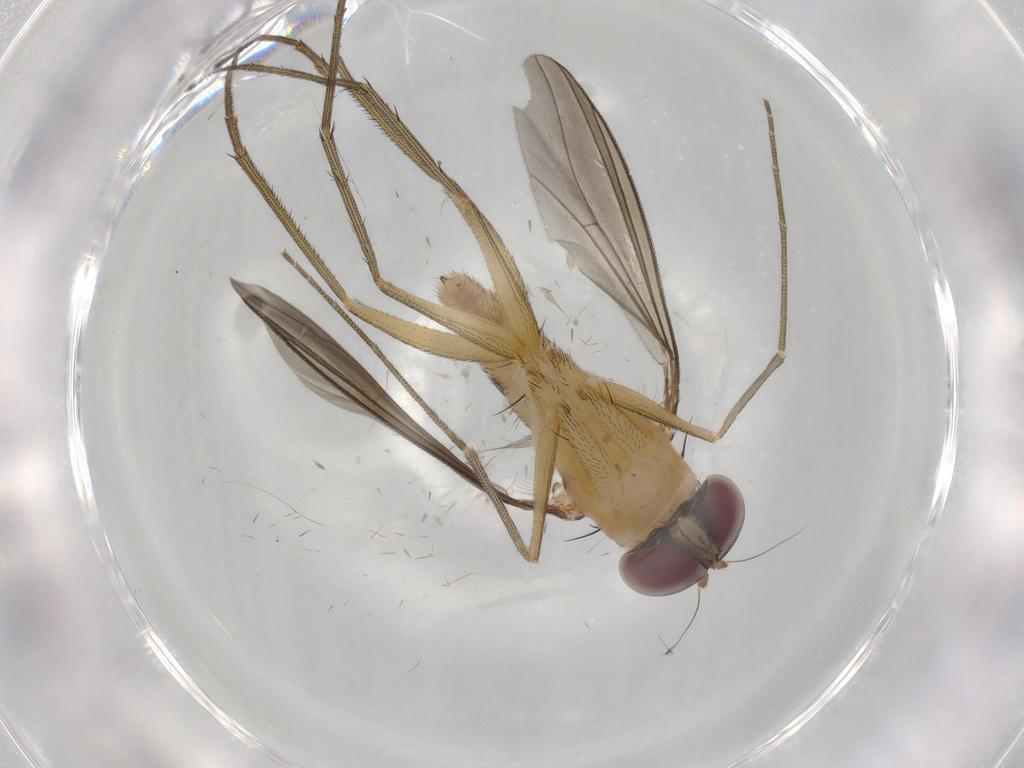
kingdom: Animalia
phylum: Arthropoda
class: Insecta
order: Diptera
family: Dolichopodidae
